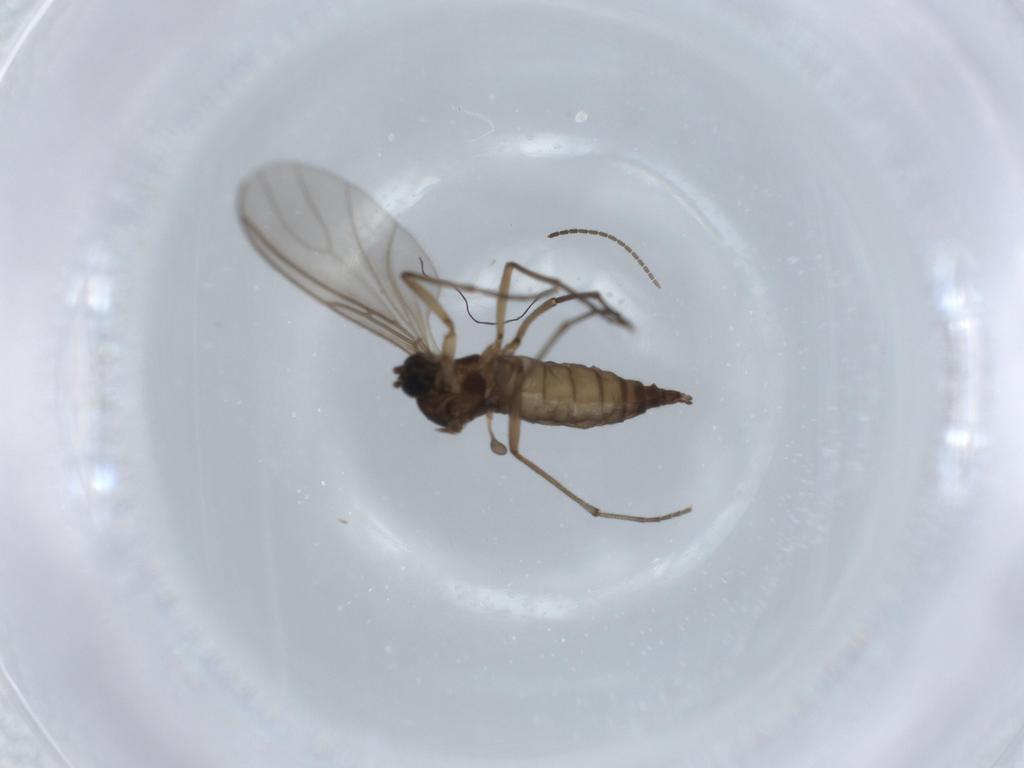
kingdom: Animalia
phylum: Arthropoda
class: Insecta
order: Diptera
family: Sciaridae
